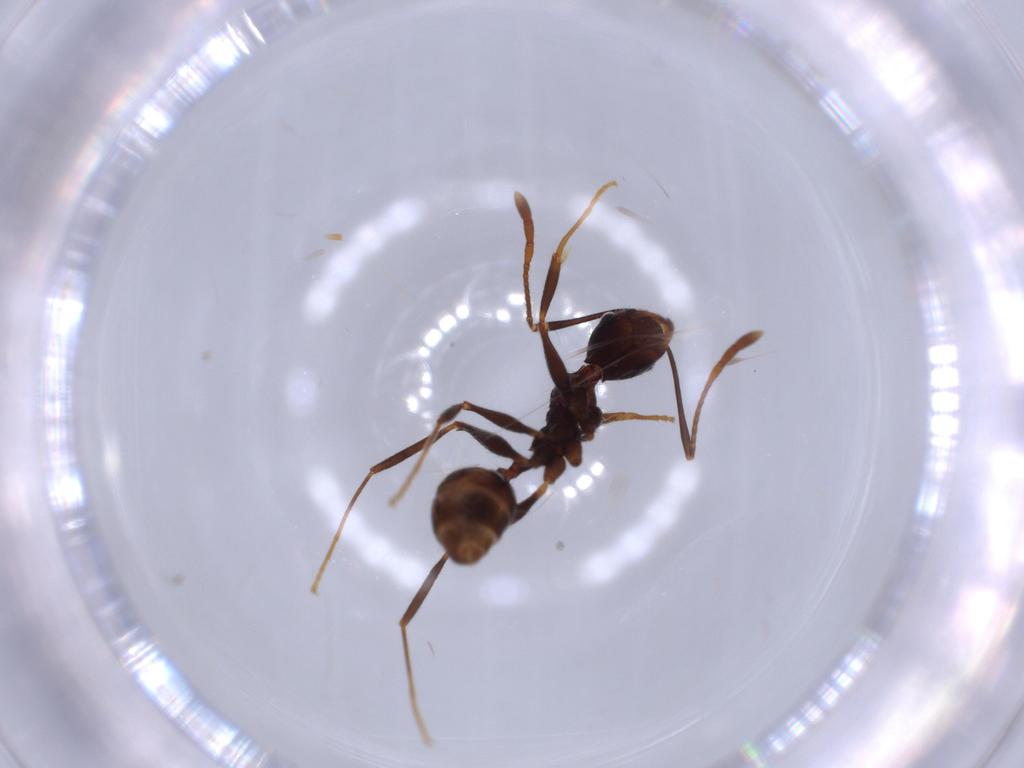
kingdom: Animalia
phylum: Arthropoda
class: Insecta
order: Hymenoptera
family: Formicidae
